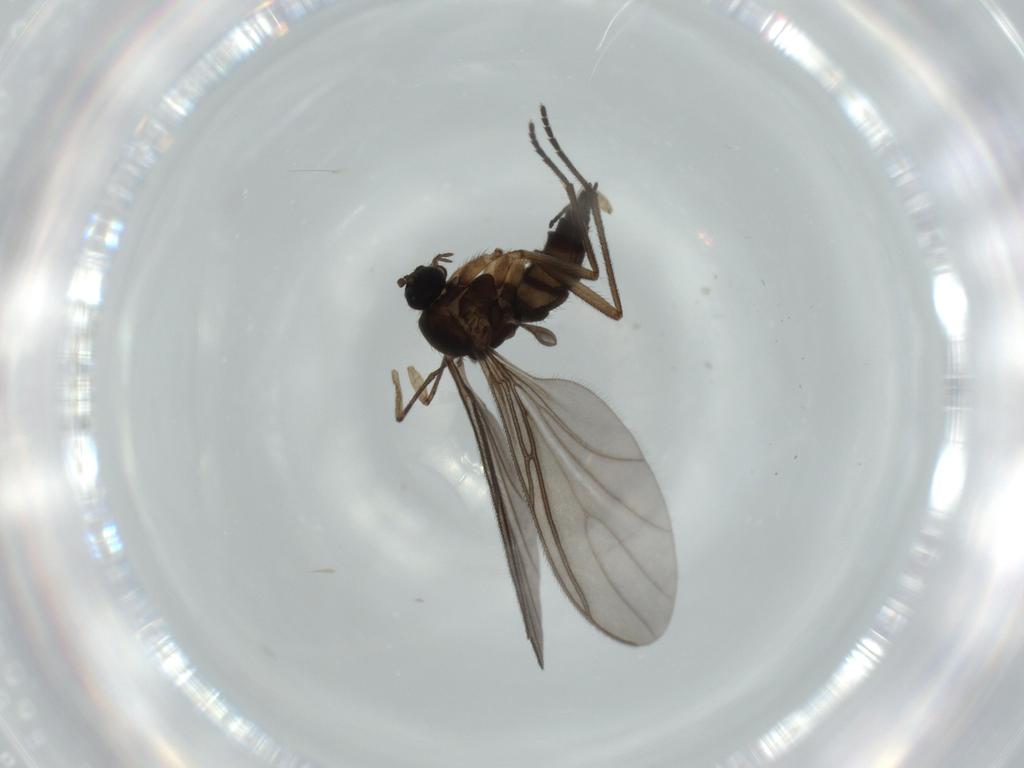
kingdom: Animalia
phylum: Arthropoda
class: Insecta
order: Diptera
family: Sciaridae
